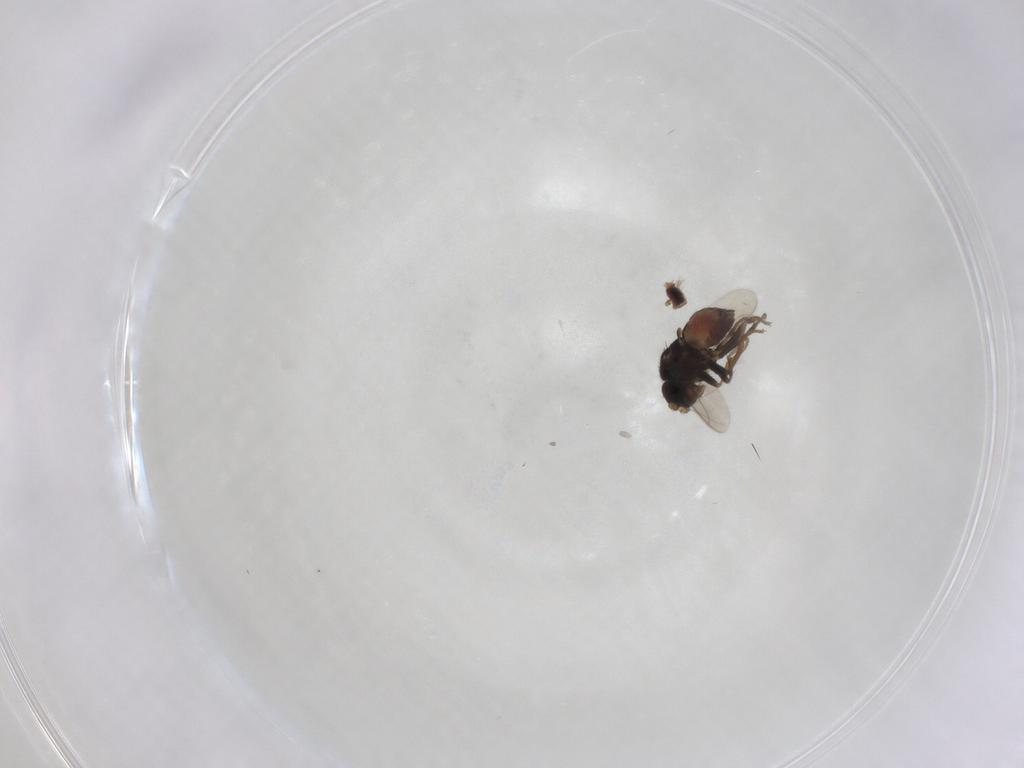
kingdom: Animalia
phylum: Arthropoda
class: Insecta
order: Diptera
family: Sphaeroceridae
